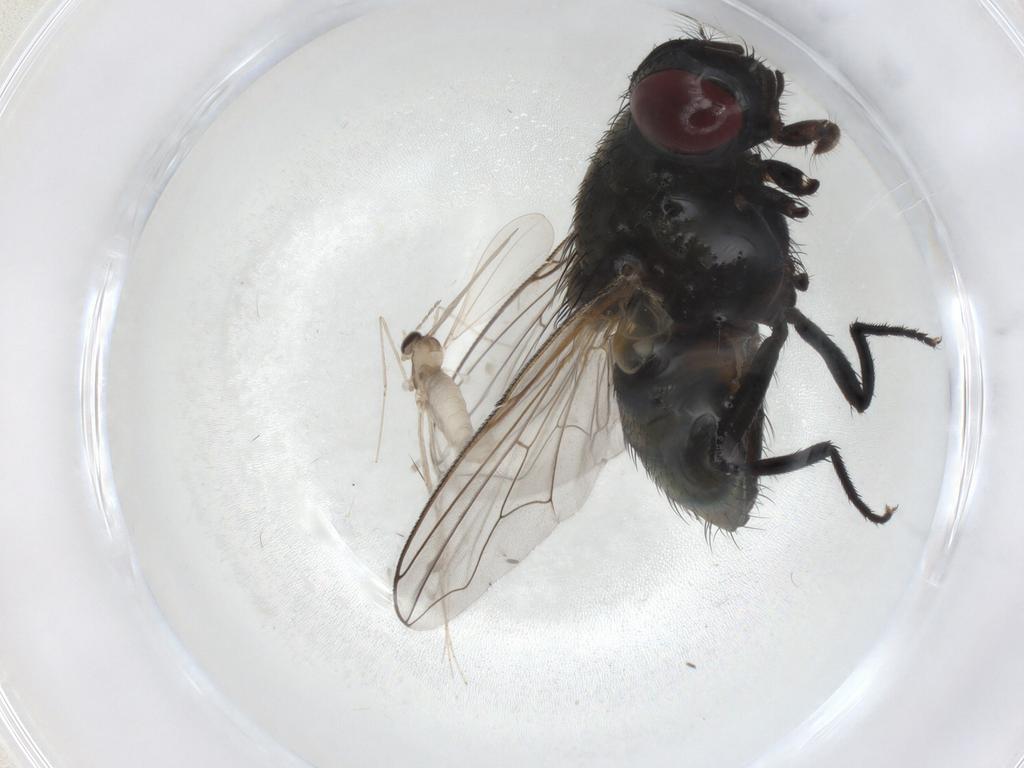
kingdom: Animalia
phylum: Arthropoda
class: Insecta
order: Diptera
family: Muscidae
